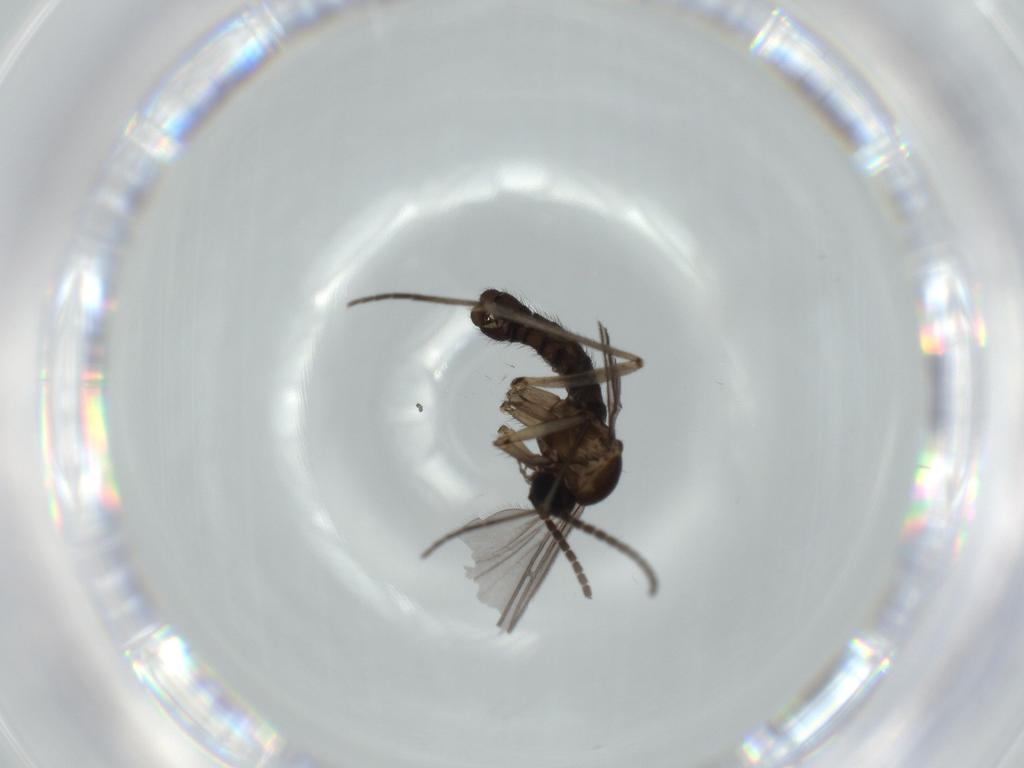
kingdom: Animalia
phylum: Arthropoda
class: Insecta
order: Diptera
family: Sciaridae
